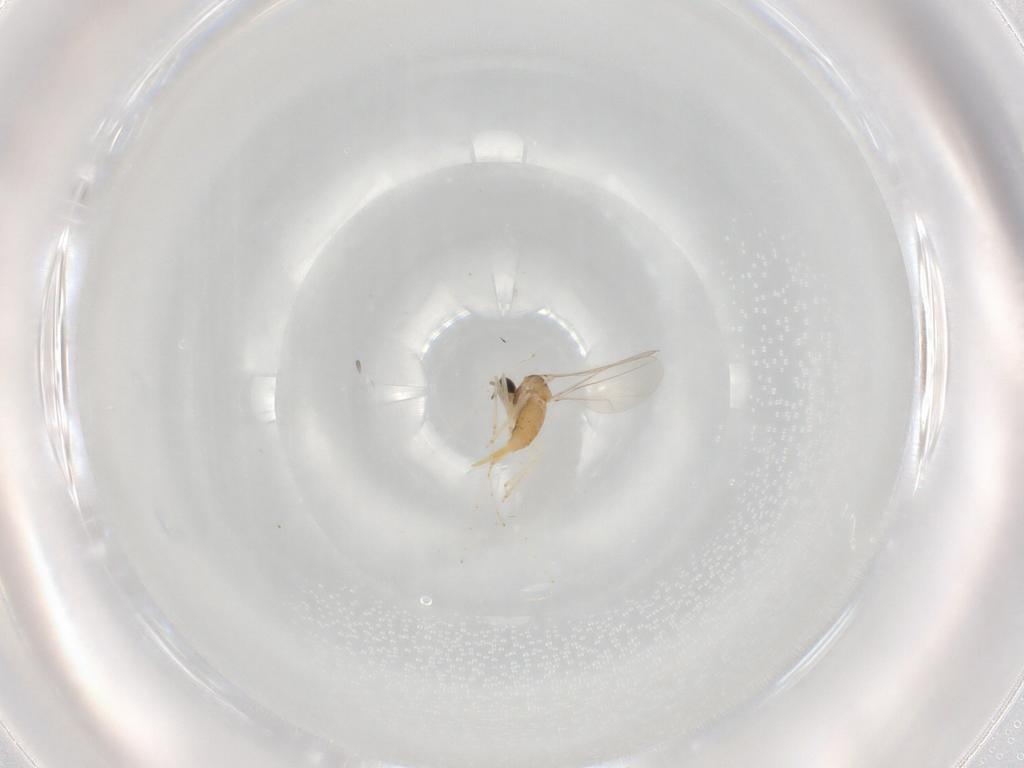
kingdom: Animalia
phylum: Arthropoda
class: Insecta
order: Diptera
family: Cecidomyiidae
